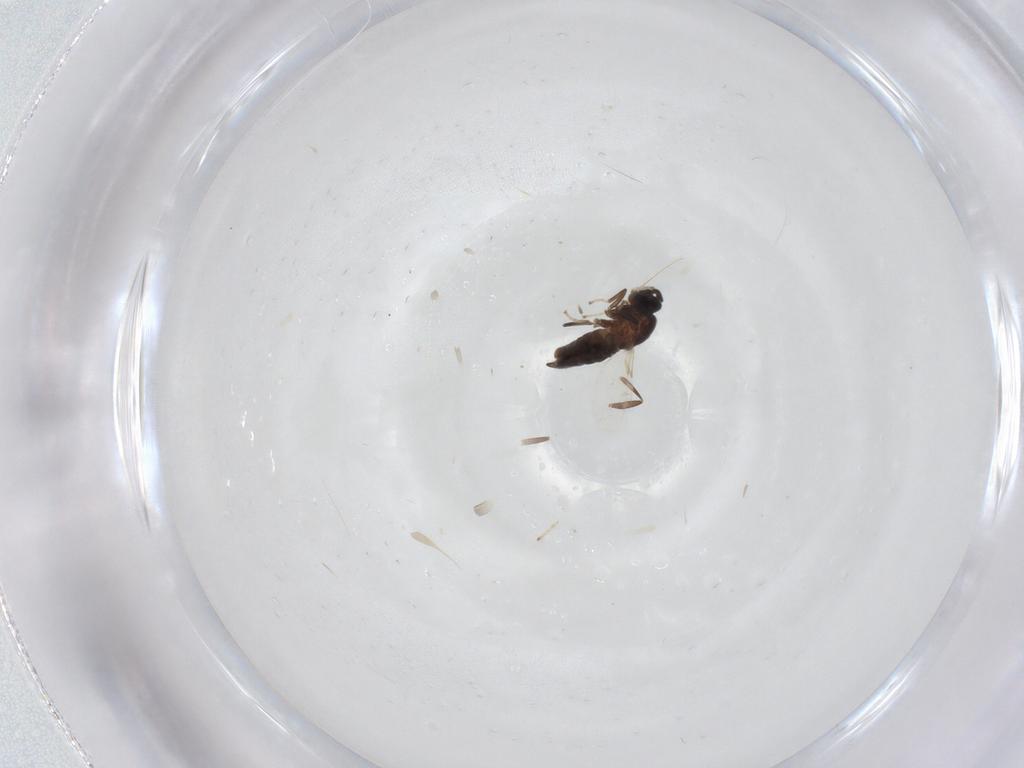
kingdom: Animalia
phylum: Arthropoda
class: Insecta
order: Diptera
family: Scatopsidae
